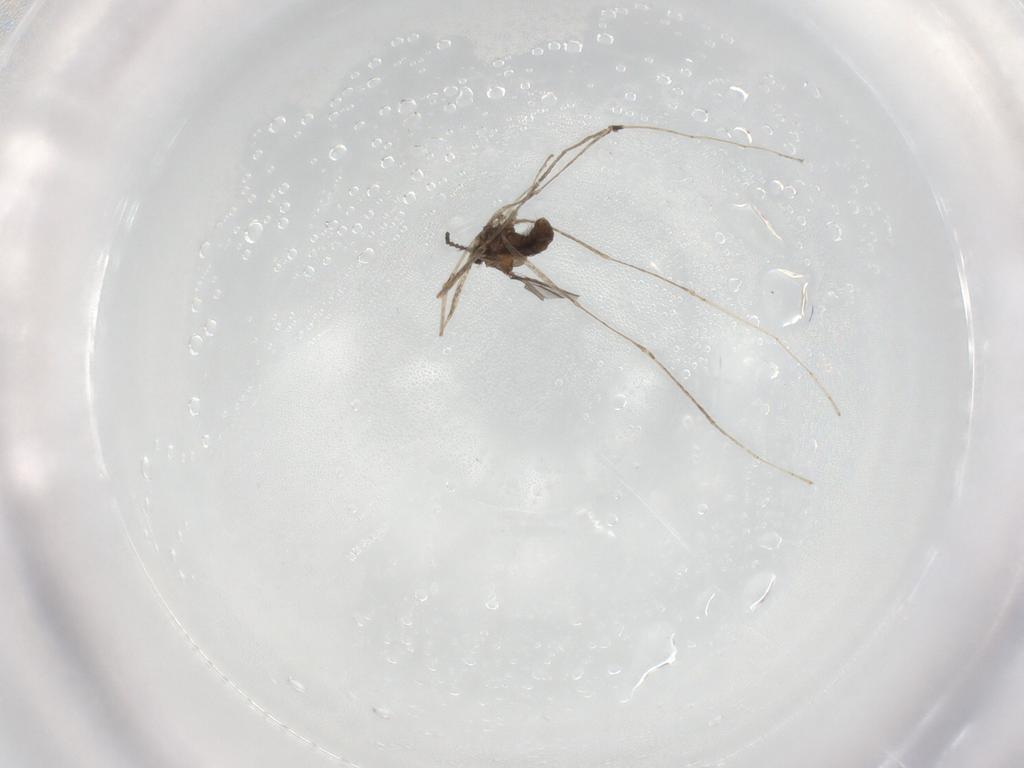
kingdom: Animalia
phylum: Arthropoda
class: Insecta
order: Diptera
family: Cecidomyiidae
